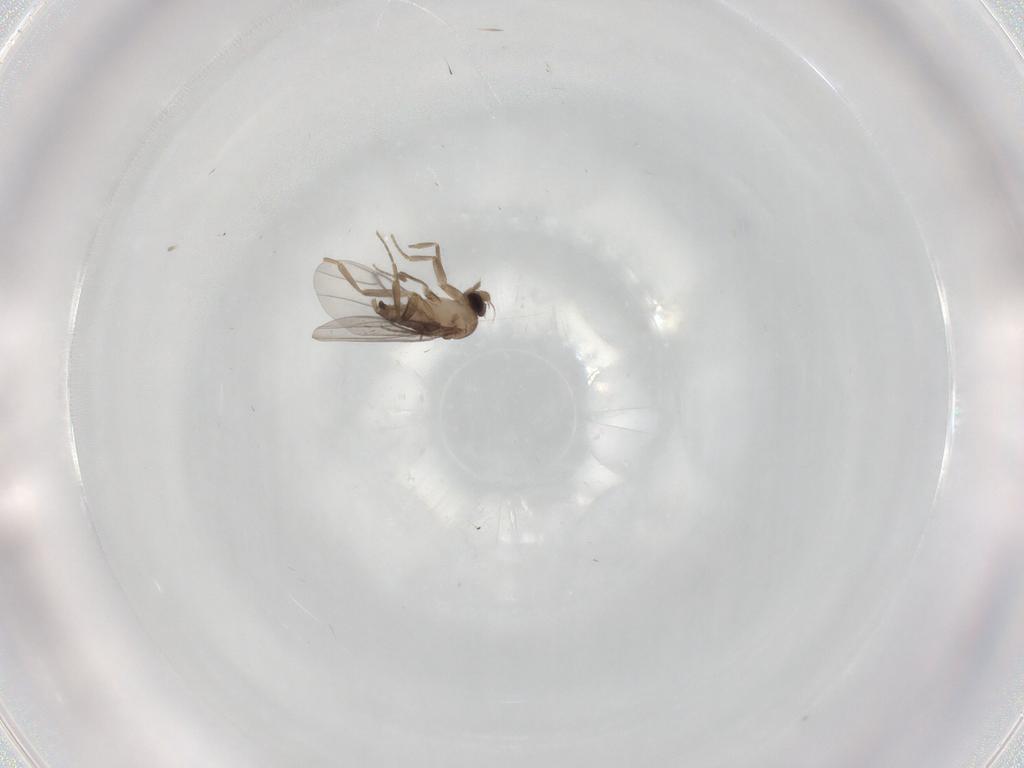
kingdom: Animalia
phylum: Arthropoda
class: Insecta
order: Diptera
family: Phoridae
